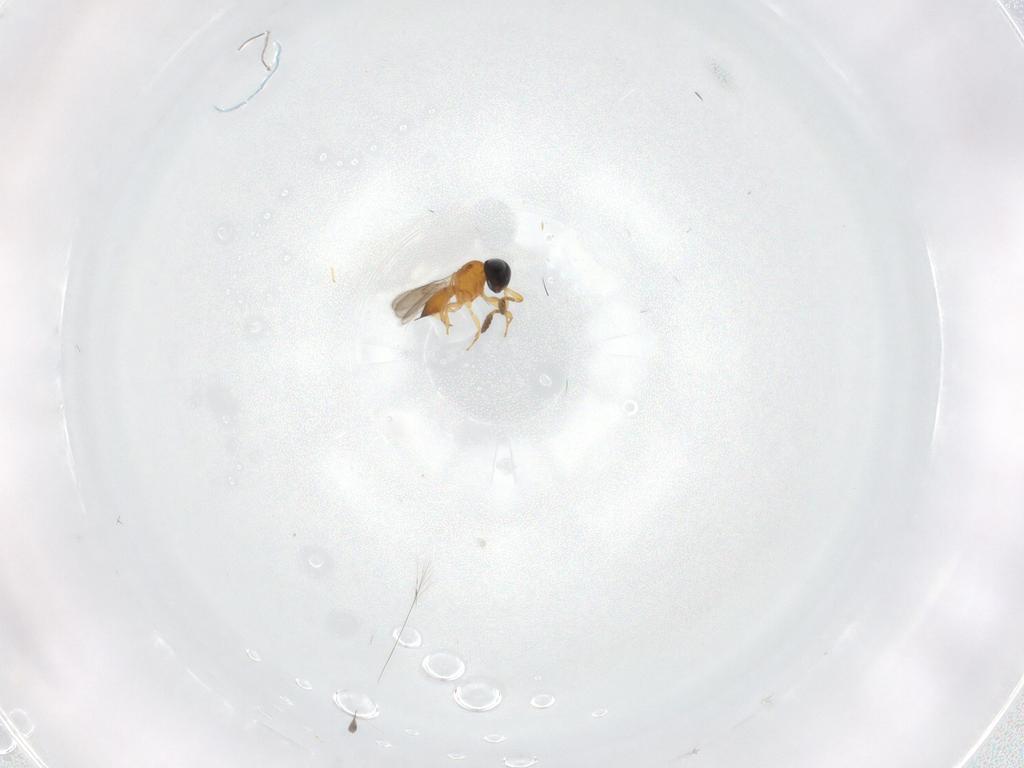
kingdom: Animalia
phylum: Arthropoda
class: Insecta
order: Hymenoptera
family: Scelionidae
